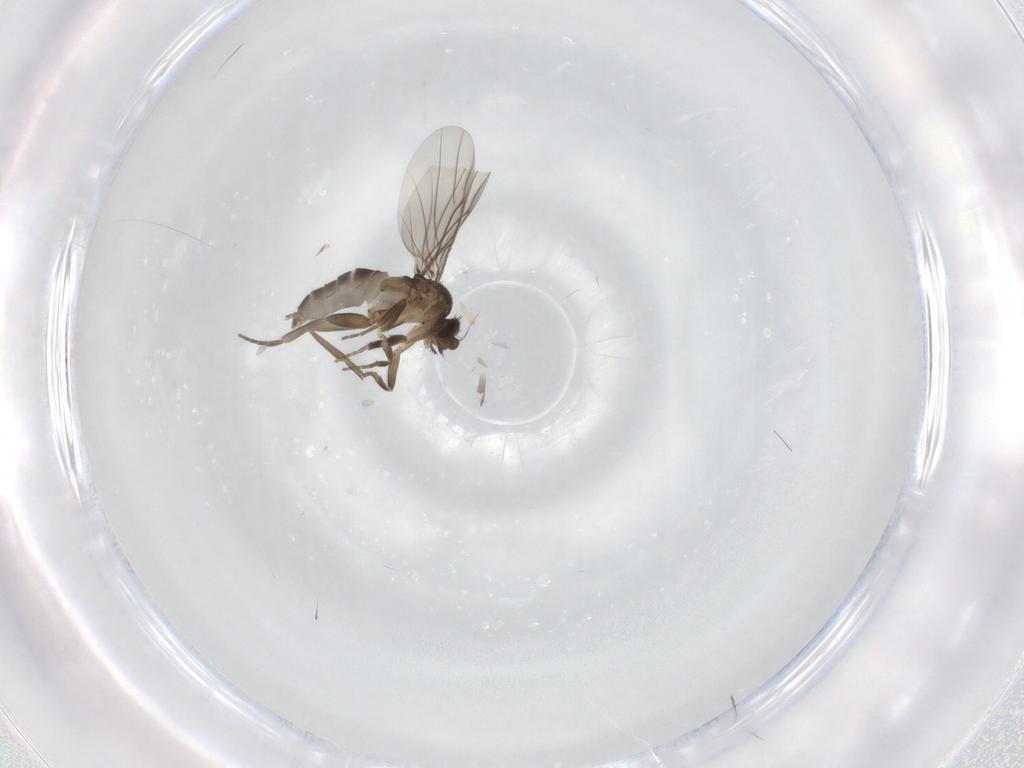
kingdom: Animalia
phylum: Arthropoda
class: Insecta
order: Diptera
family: Phoridae
